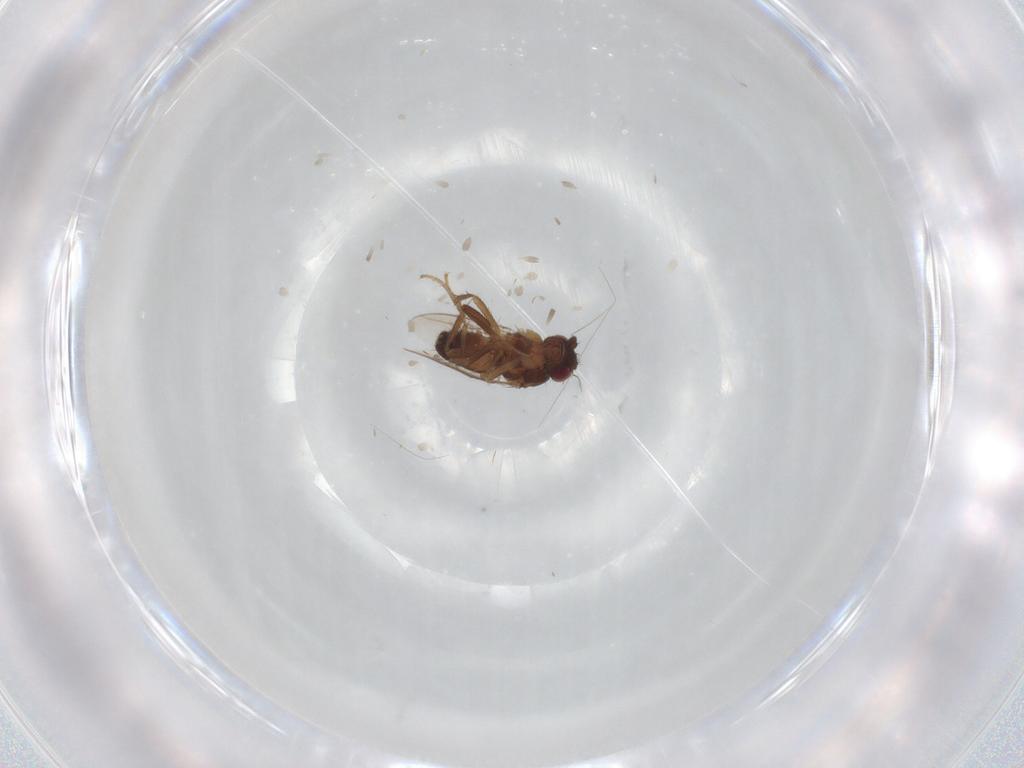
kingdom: Animalia
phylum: Arthropoda
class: Insecta
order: Diptera
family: Sphaeroceridae
